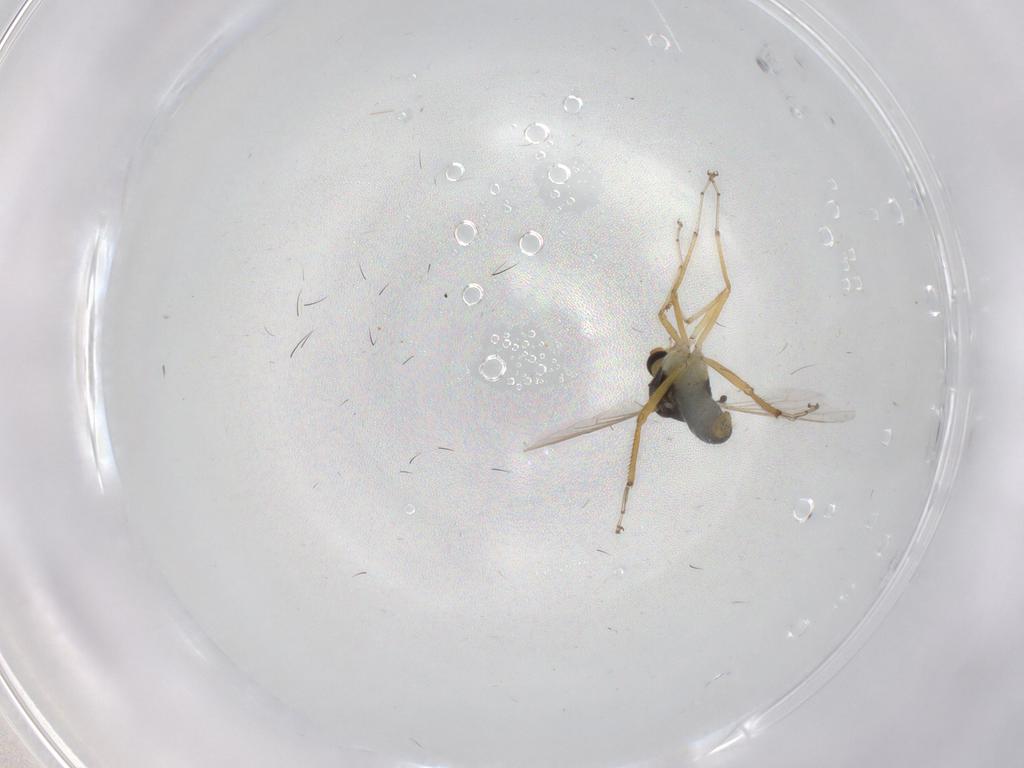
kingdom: Animalia
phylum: Arthropoda
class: Insecta
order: Diptera
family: Ceratopogonidae
